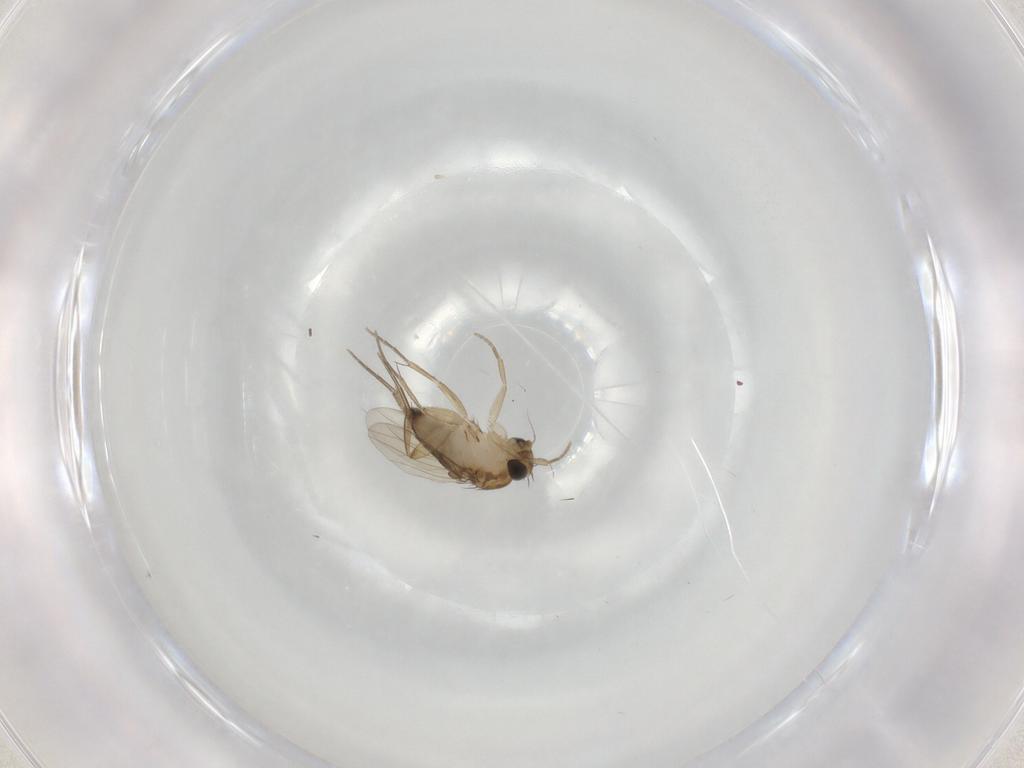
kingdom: Animalia
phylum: Arthropoda
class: Insecta
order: Diptera
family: Phoridae
